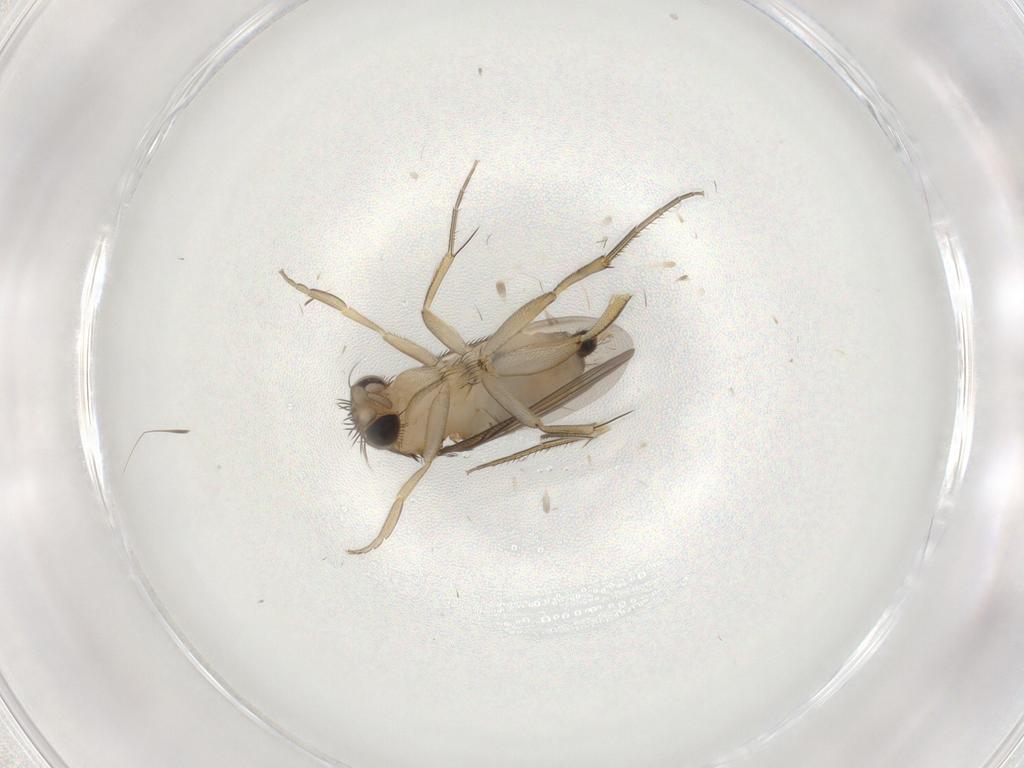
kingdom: Animalia
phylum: Arthropoda
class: Insecta
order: Diptera
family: Phoridae
